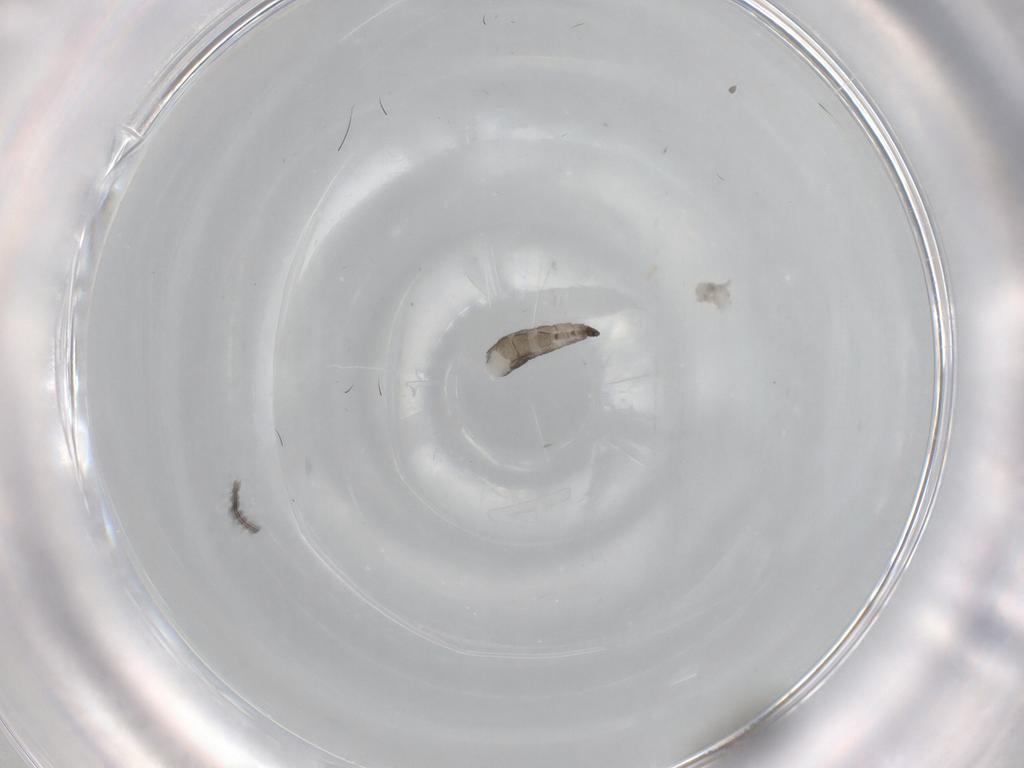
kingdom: Animalia
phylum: Arthropoda
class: Insecta
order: Diptera
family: Sciaridae
